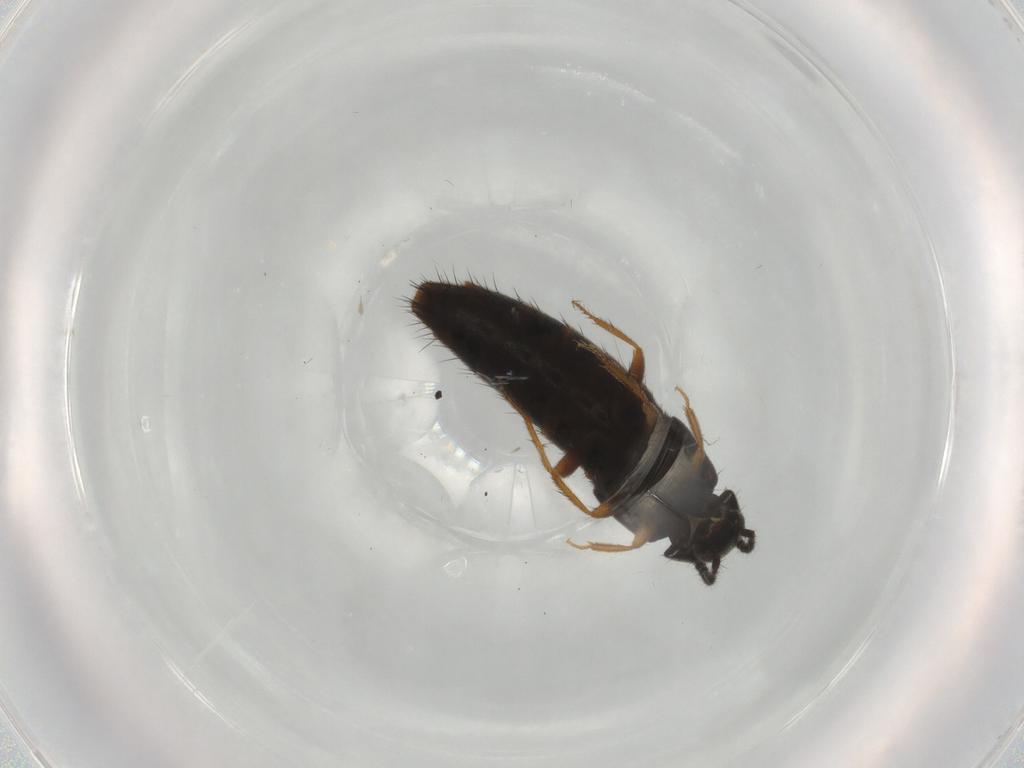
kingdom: Animalia
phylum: Arthropoda
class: Insecta
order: Coleoptera
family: Staphylinidae
